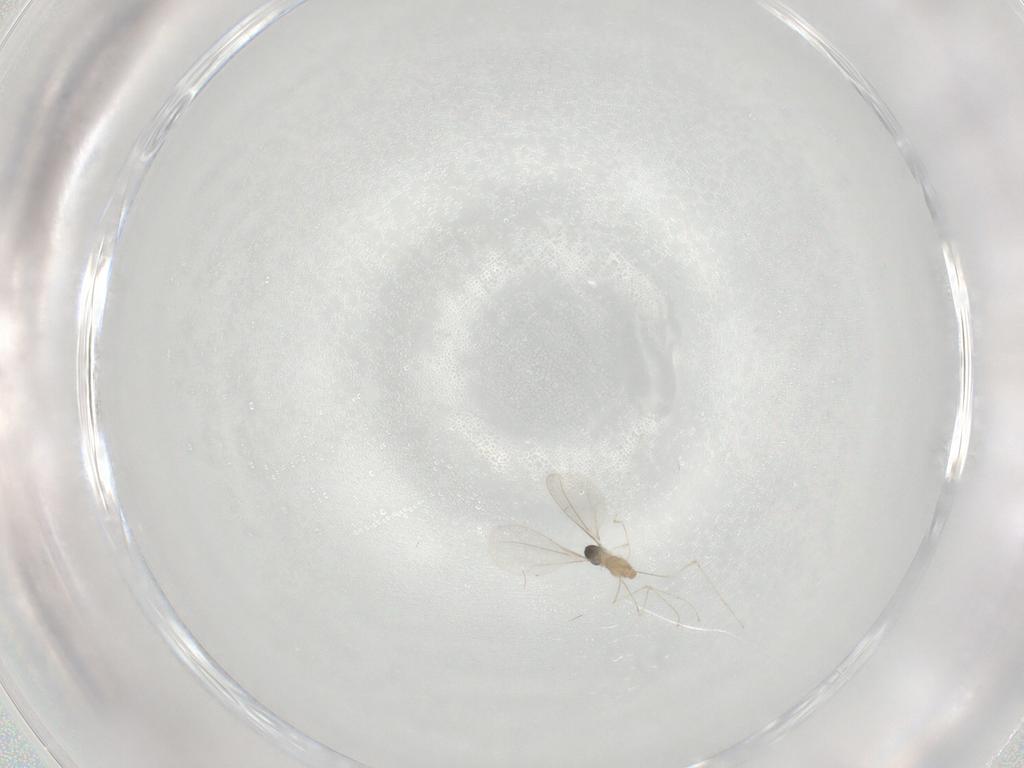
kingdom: Animalia
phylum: Arthropoda
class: Insecta
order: Diptera
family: Cecidomyiidae
